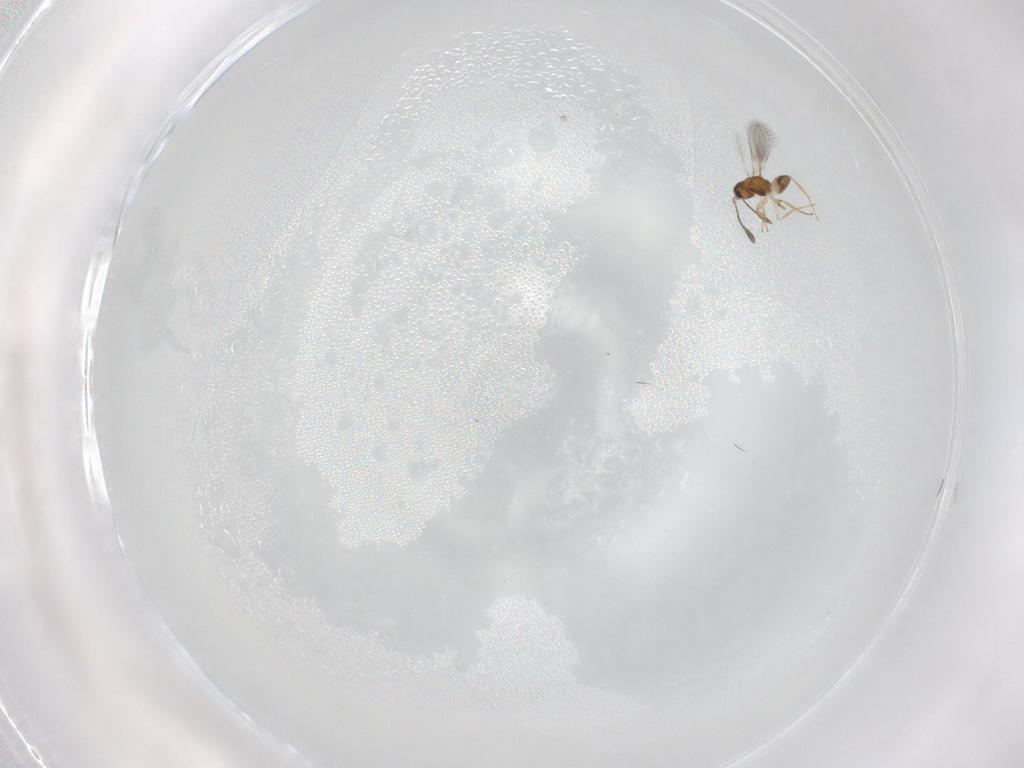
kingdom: Animalia
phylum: Arthropoda
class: Insecta
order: Hymenoptera
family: Mymaridae
